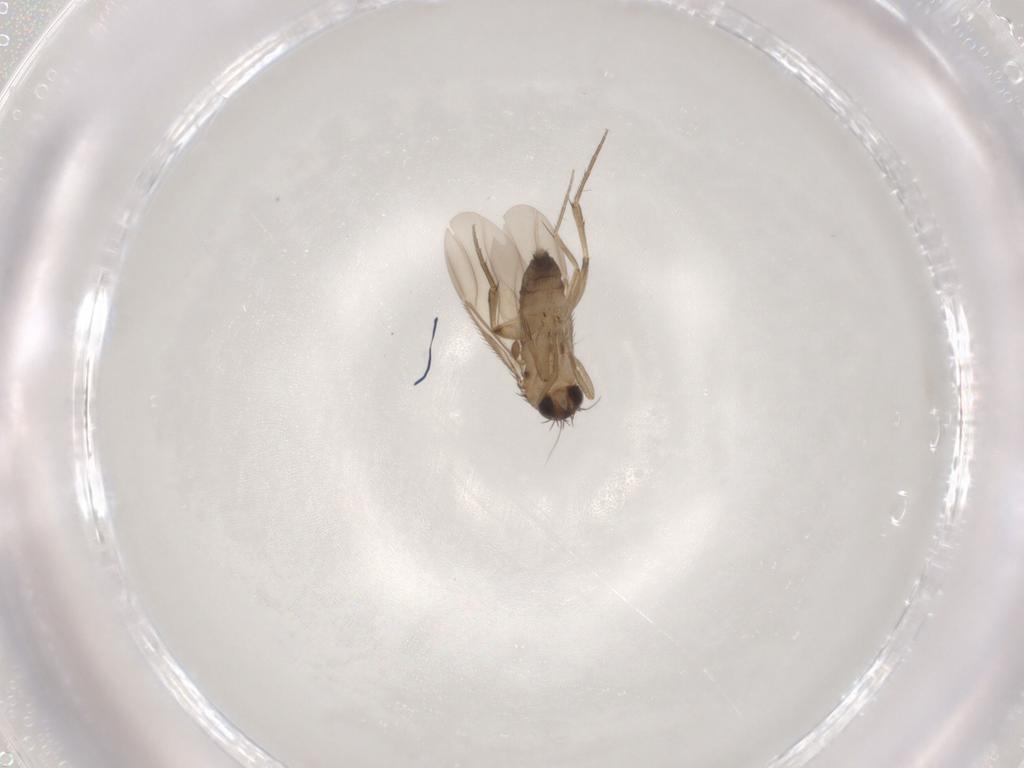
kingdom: Animalia
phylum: Arthropoda
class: Insecta
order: Diptera
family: Phoridae
